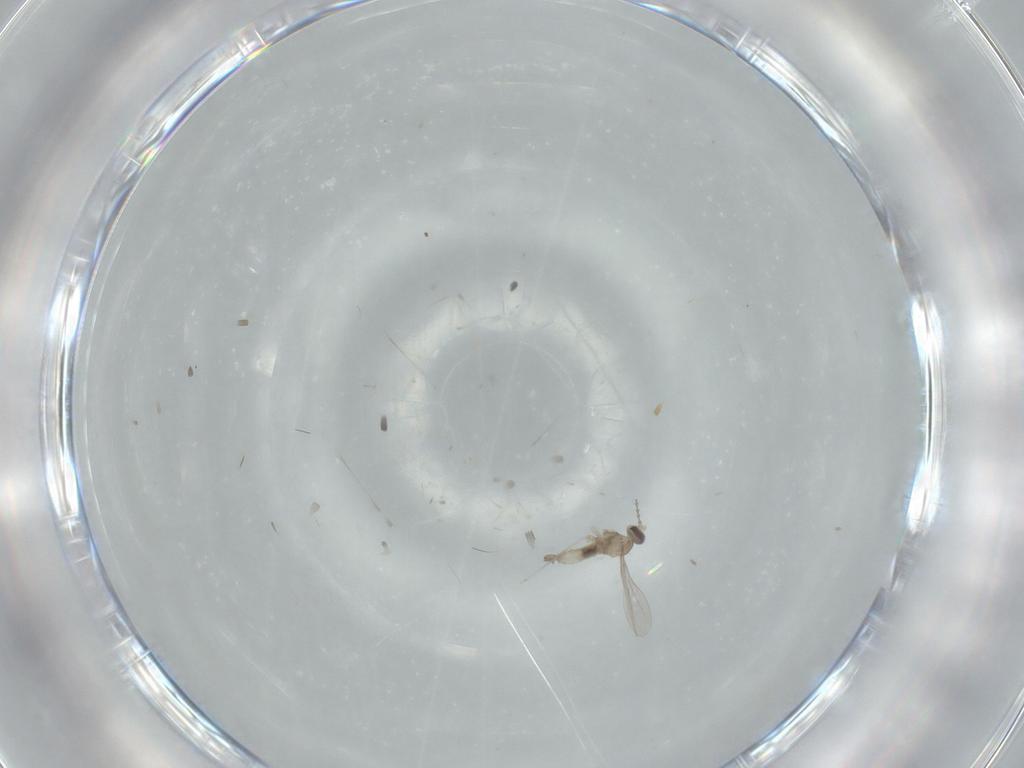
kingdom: Animalia
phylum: Arthropoda
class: Insecta
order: Diptera
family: Cecidomyiidae
